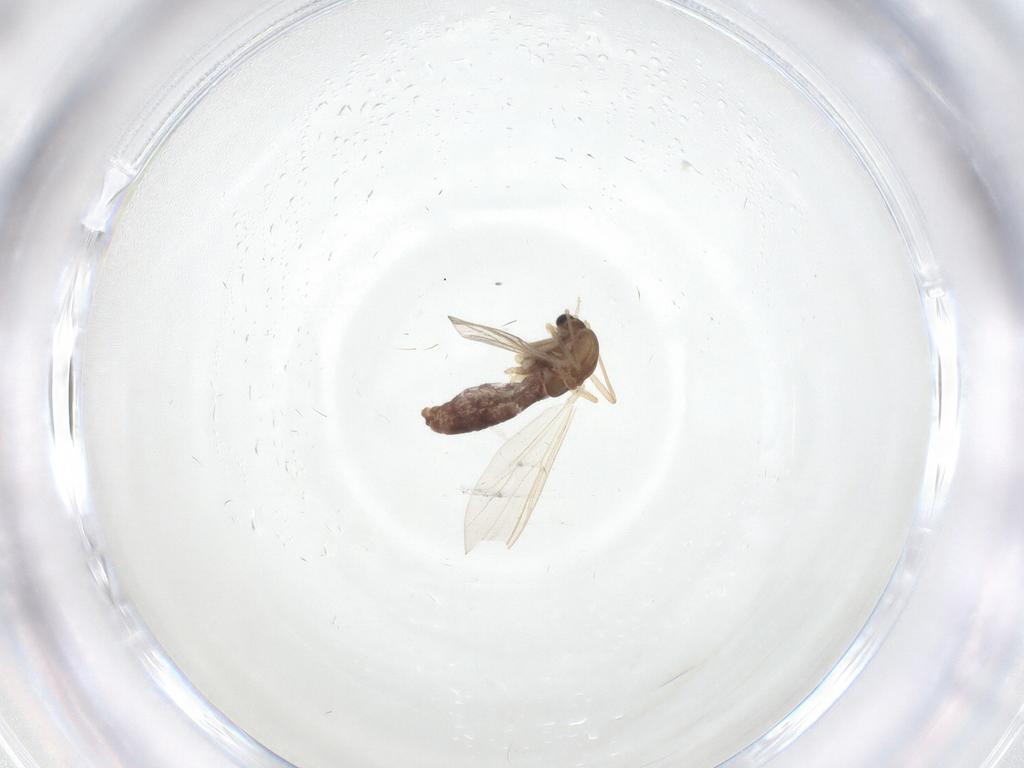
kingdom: Animalia
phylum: Arthropoda
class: Insecta
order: Diptera
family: Chironomidae
